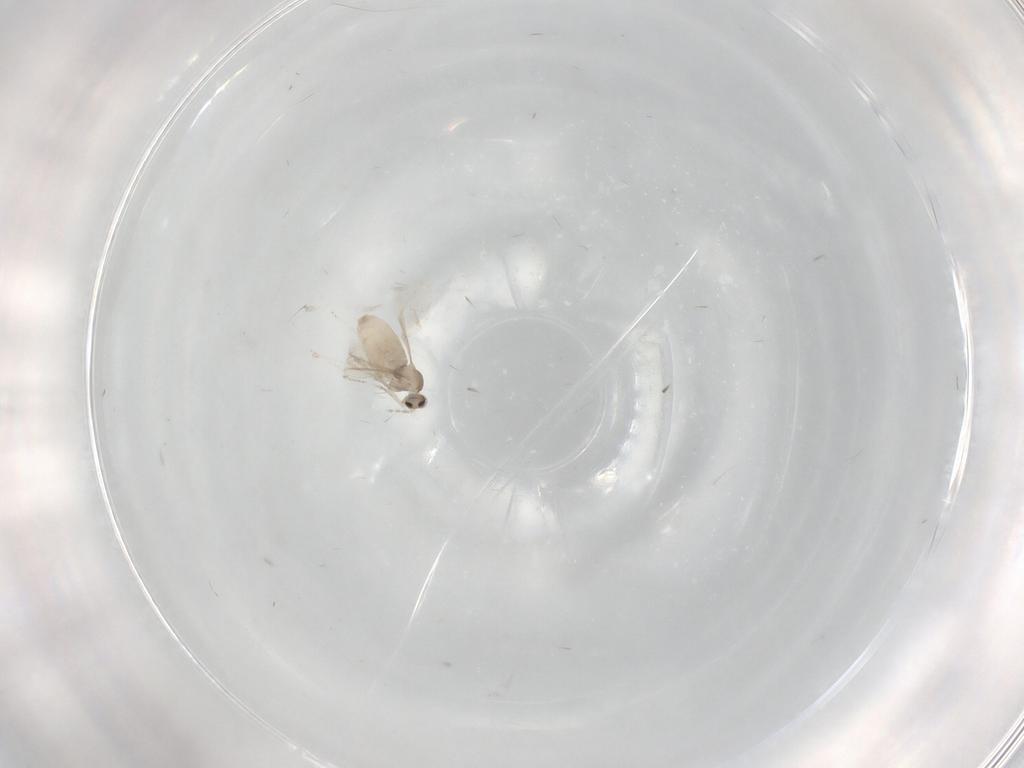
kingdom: Animalia
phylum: Arthropoda
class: Insecta
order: Diptera
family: Cecidomyiidae
